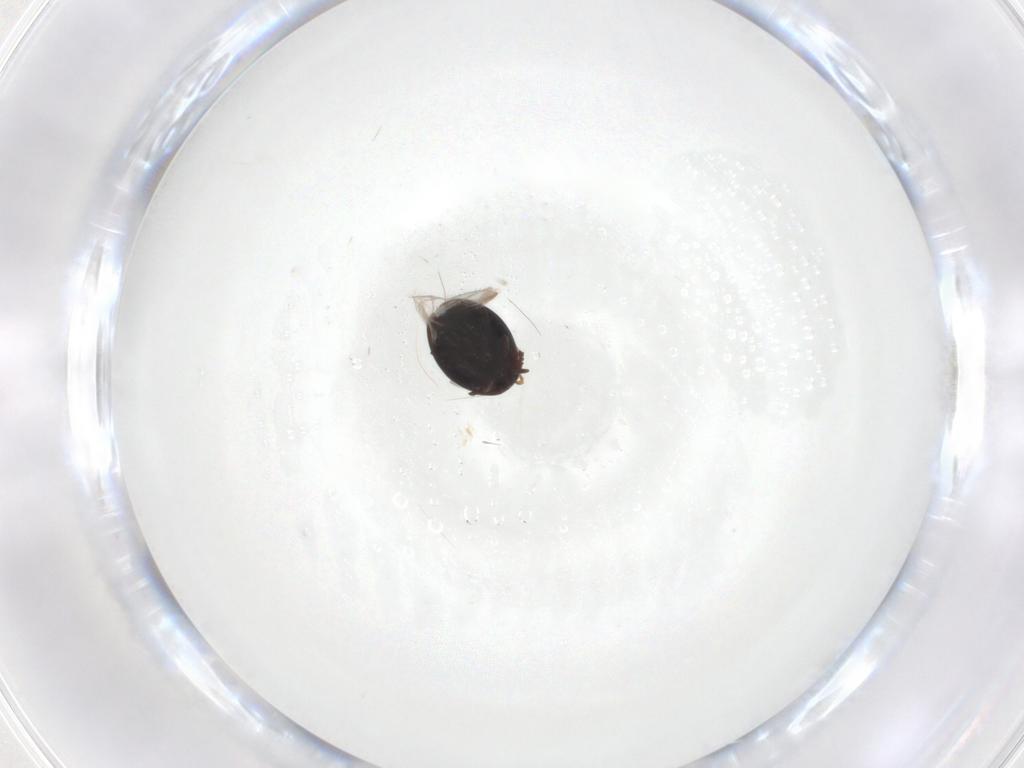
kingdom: Animalia
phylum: Arthropoda
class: Insecta
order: Coleoptera
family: Corylophidae
